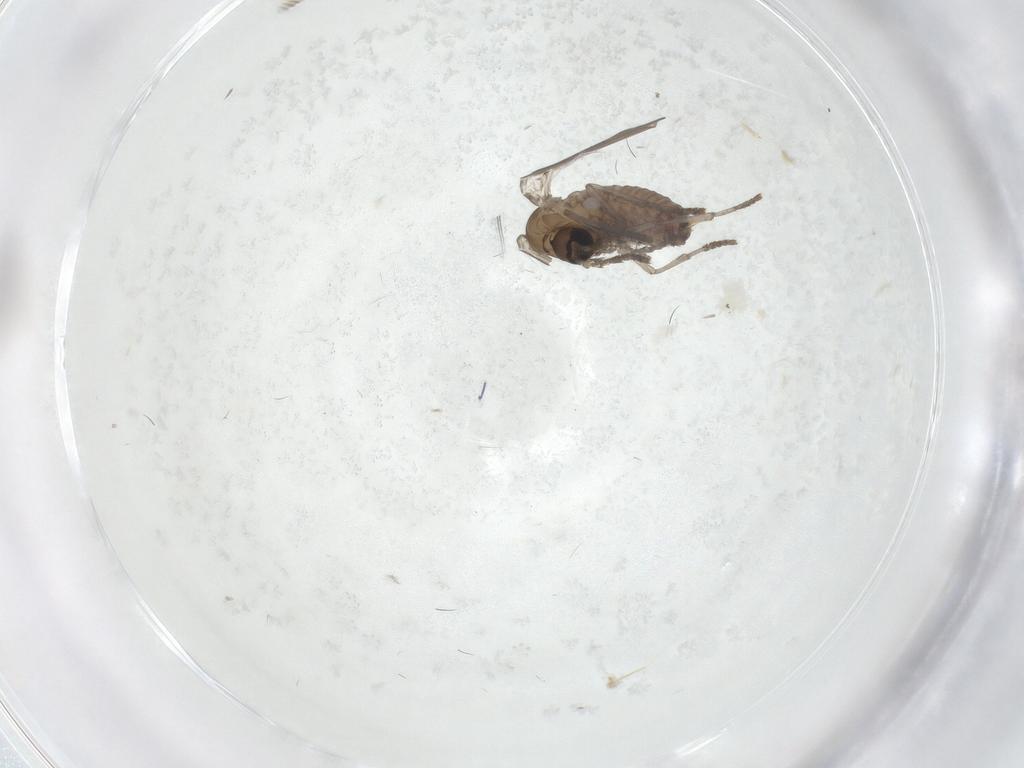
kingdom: Animalia
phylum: Arthropoda
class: Insecta
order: Diptera
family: Psychodidae
